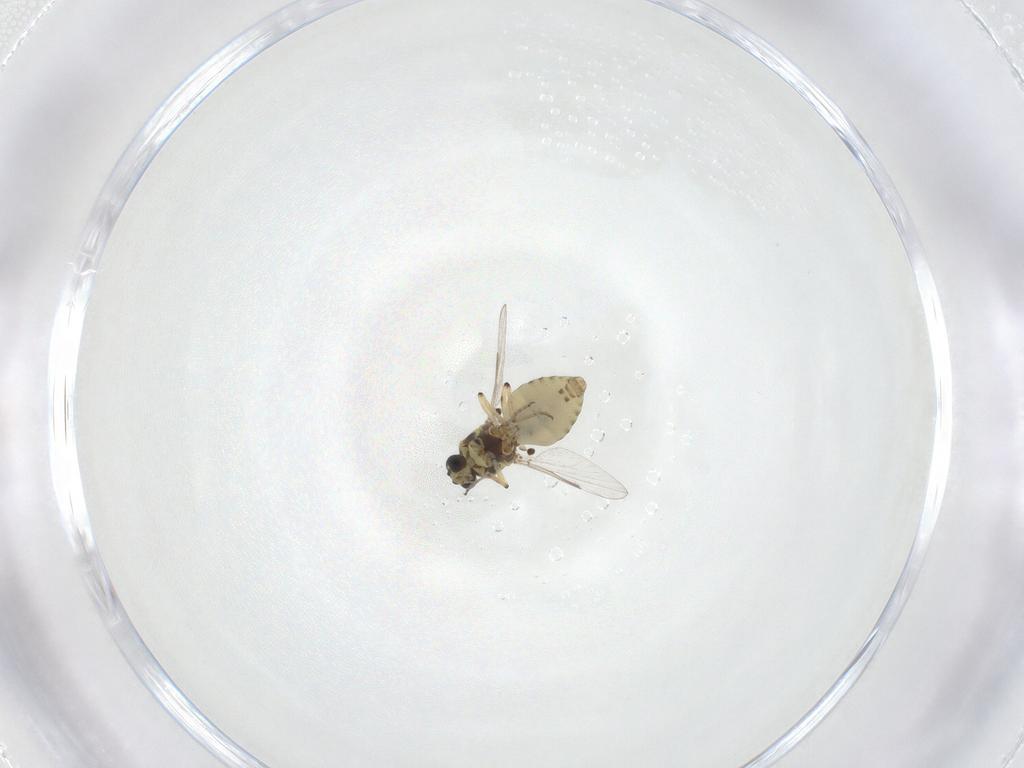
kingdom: Animalia
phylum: Arthropoda
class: Insecta
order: Diptera
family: Ceratopogonidae
